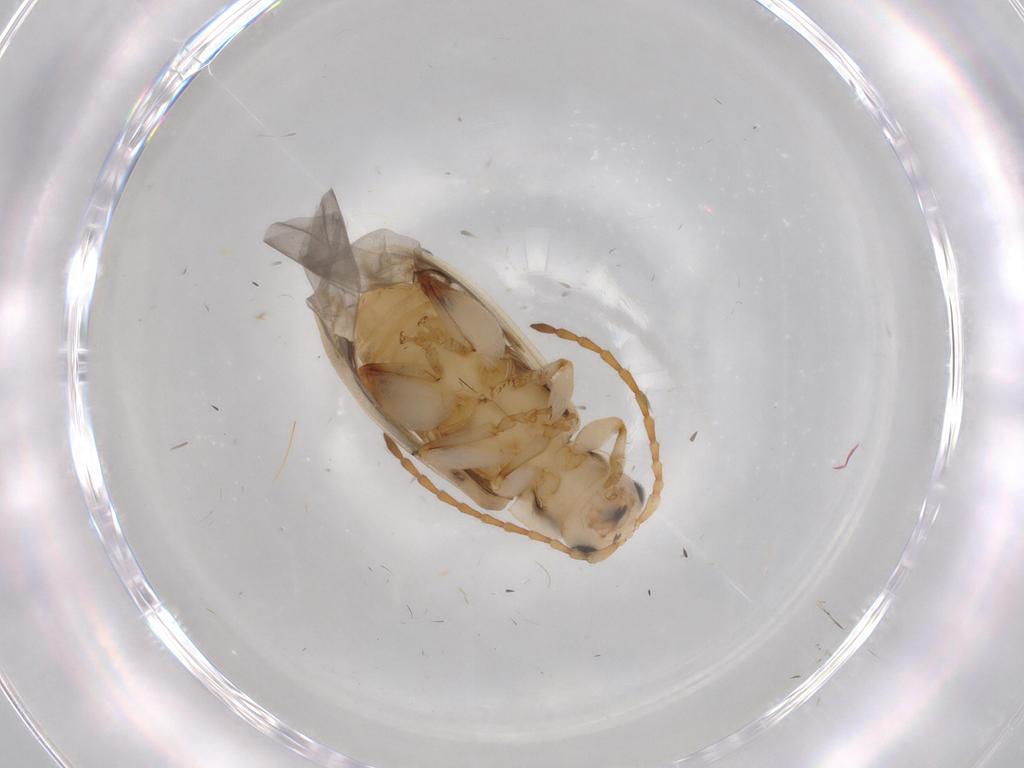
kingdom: Animalia
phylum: Arthropoda
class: Insecta
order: Coleoptera
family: Chrysomelidae
